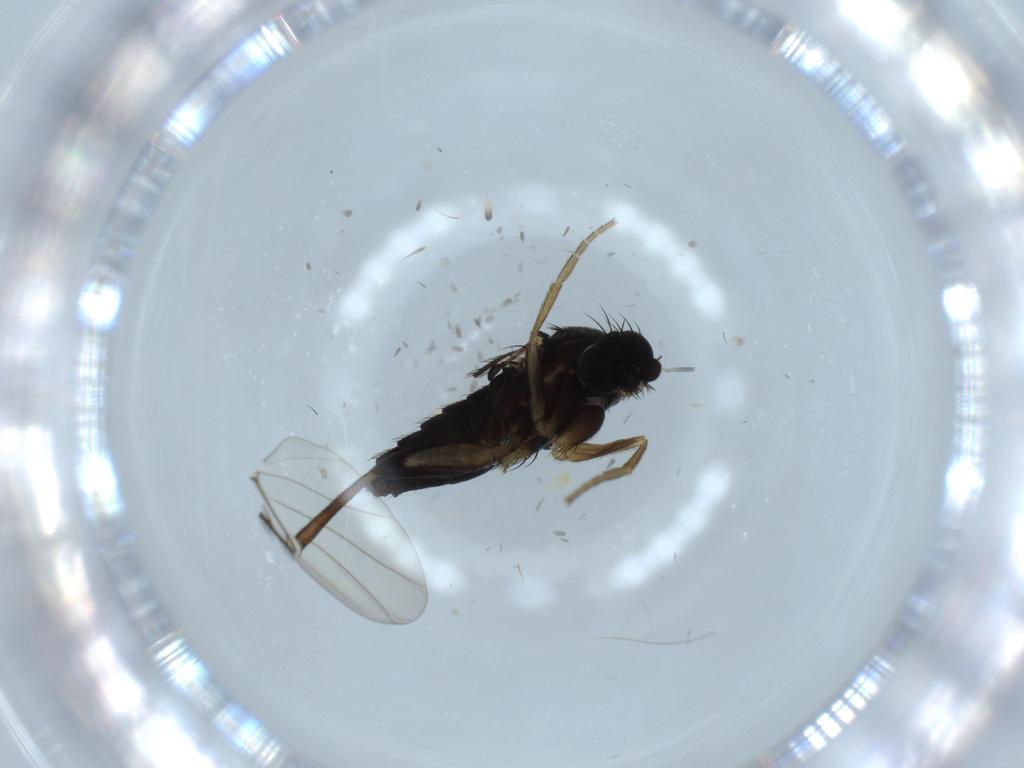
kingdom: Animalia
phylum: Arthropoda
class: Insecta
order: Diptera
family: Phoridae
